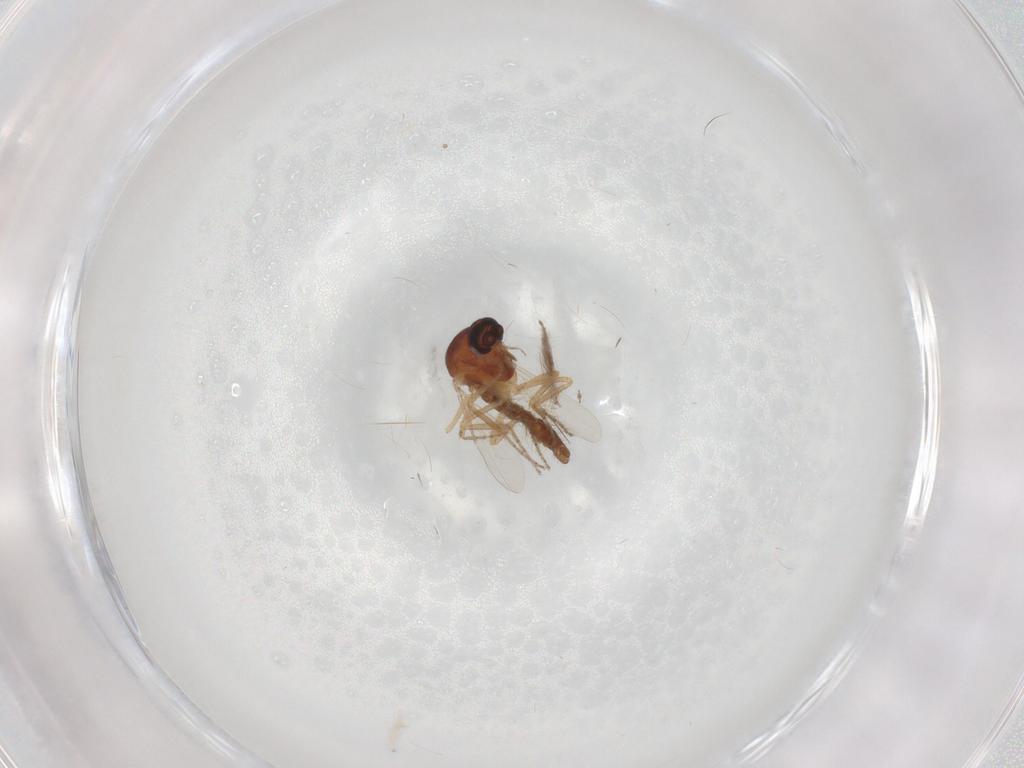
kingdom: Animalia
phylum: Arthropoda
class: Insecta
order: Diptera
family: Ceratopogonidae
